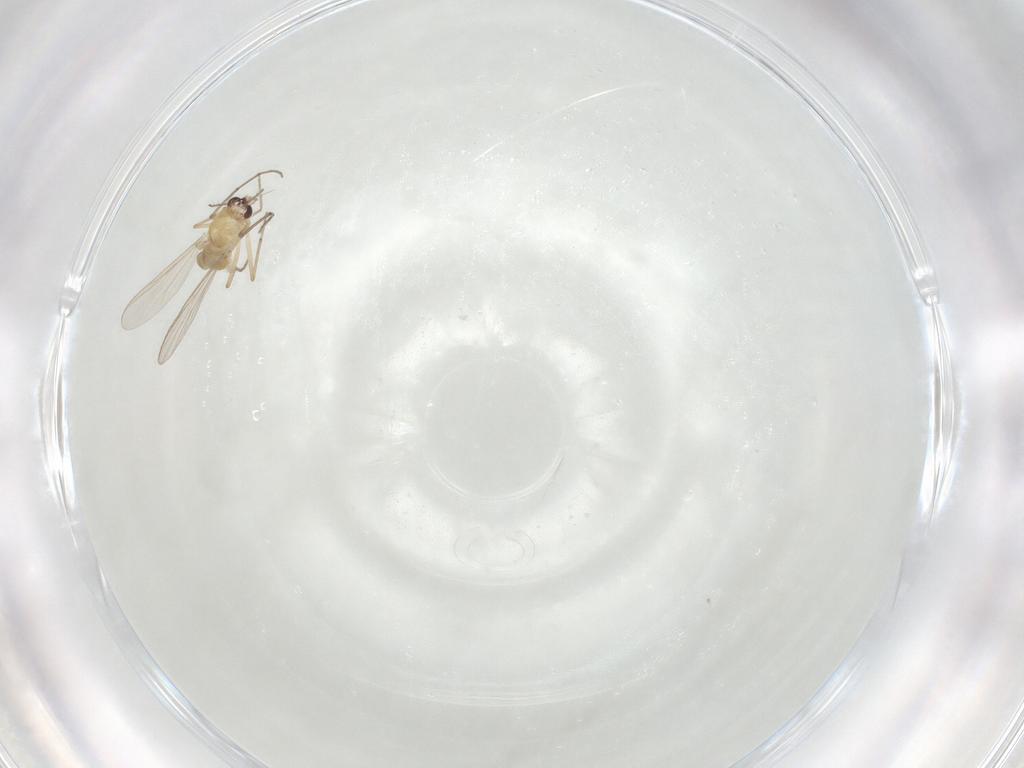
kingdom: Animalia
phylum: Arthropoda
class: Insecta
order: Diptera
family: Chironomidae
